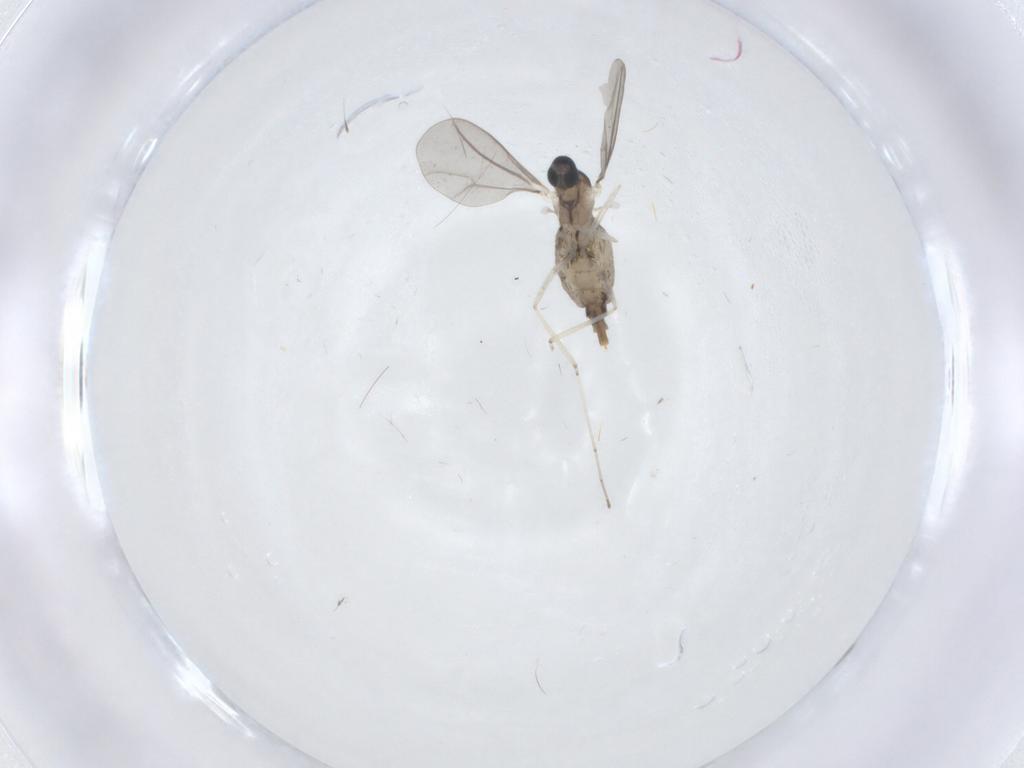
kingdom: Animalia
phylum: Arthropoda
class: Insecta
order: Diptera
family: Cecidomyiidae
